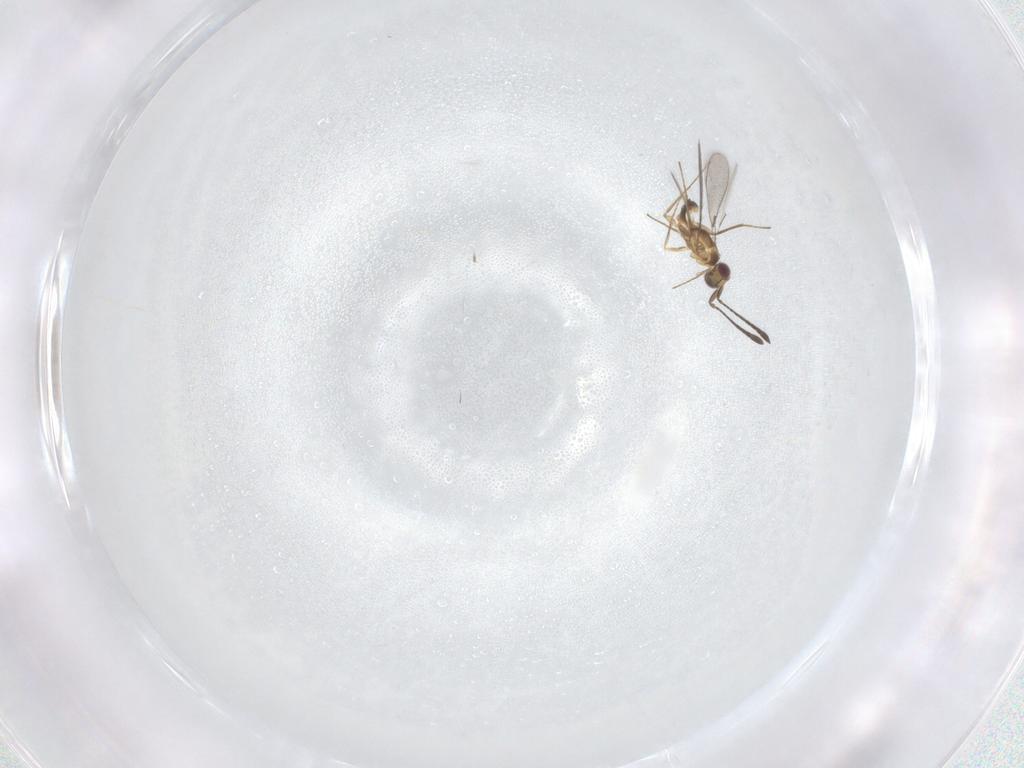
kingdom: Animalia
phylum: Arthropoda
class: Insecta
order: Hymenoptera
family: Mymaridae
